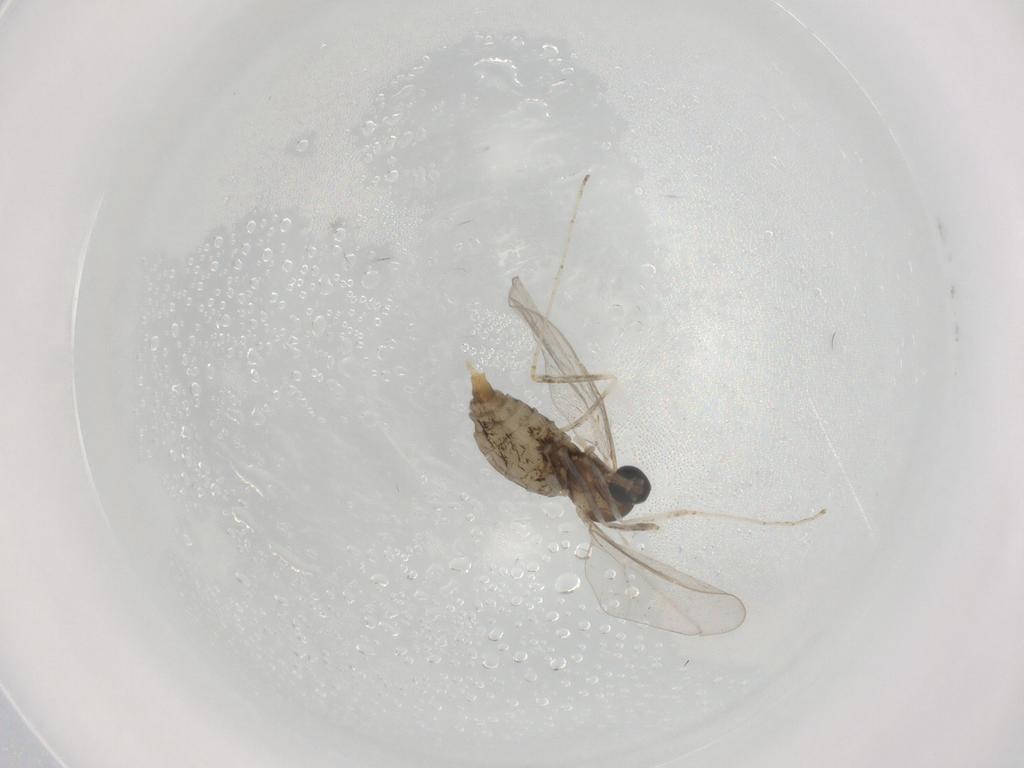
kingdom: Animalia
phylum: Arthropoda
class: Insecta
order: Diptera
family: Cecidomyiidae
